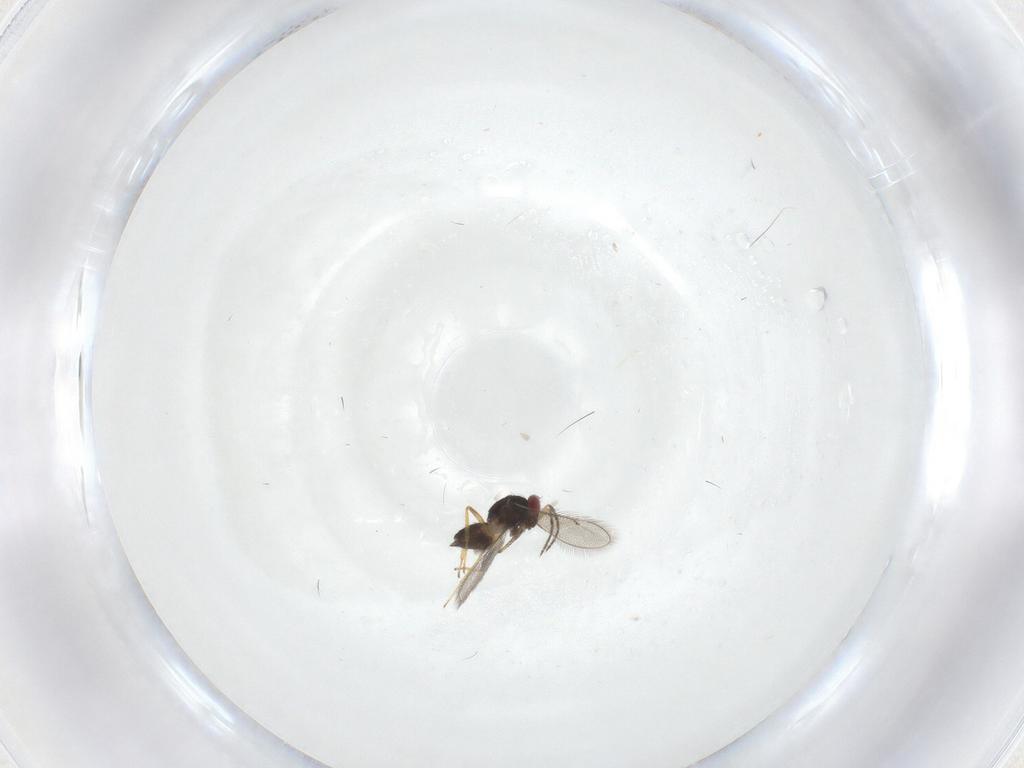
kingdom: Animalia
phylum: Arthropoda
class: Insecta
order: Hymenoptera
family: Eulophidae
